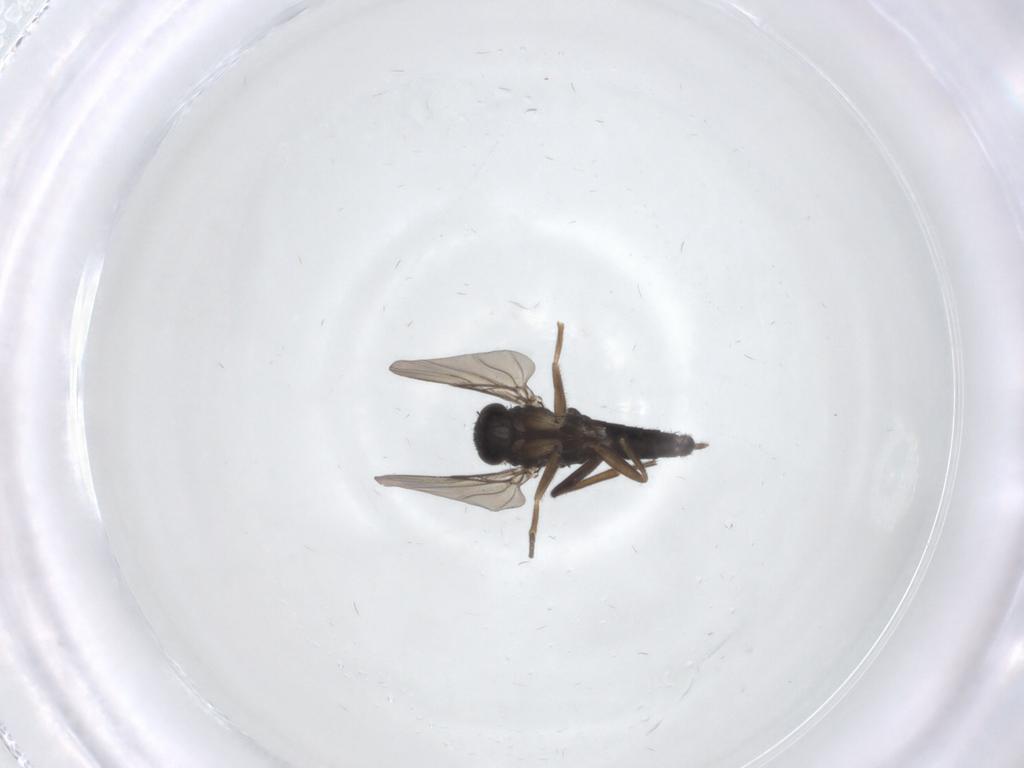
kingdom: Animalia
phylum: Arthropoda
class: Insecta
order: Diptera
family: Phoridae
